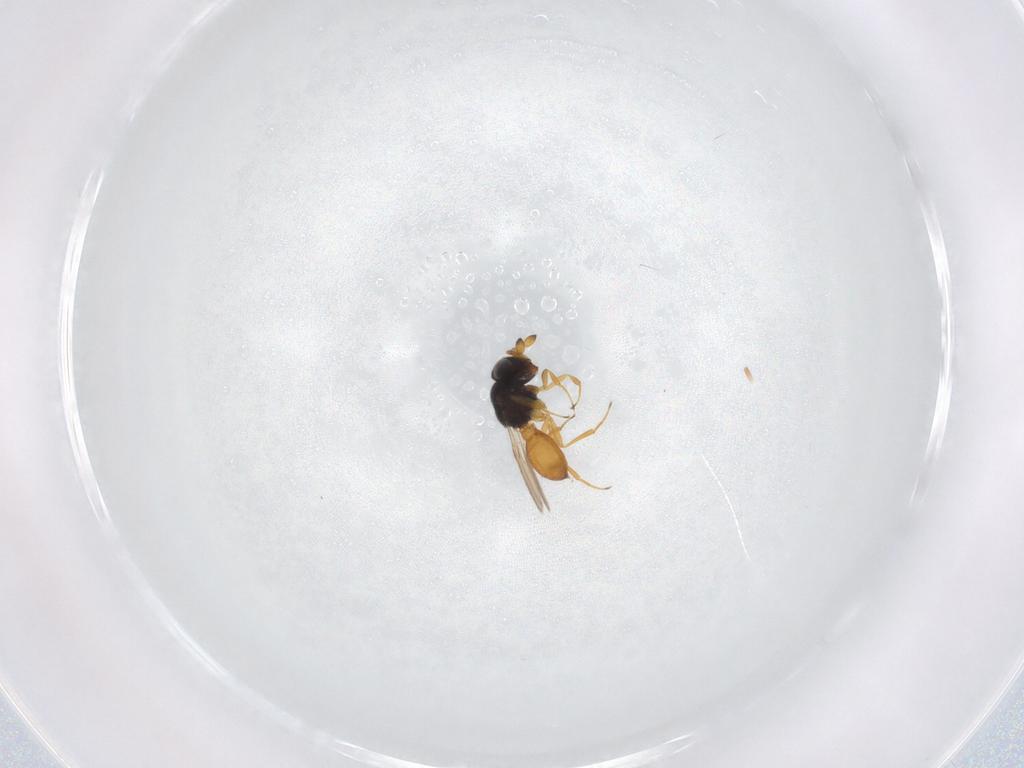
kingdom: Animalia
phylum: Arthropoda
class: Insecta
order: Hymenoptera
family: Scelionidae
